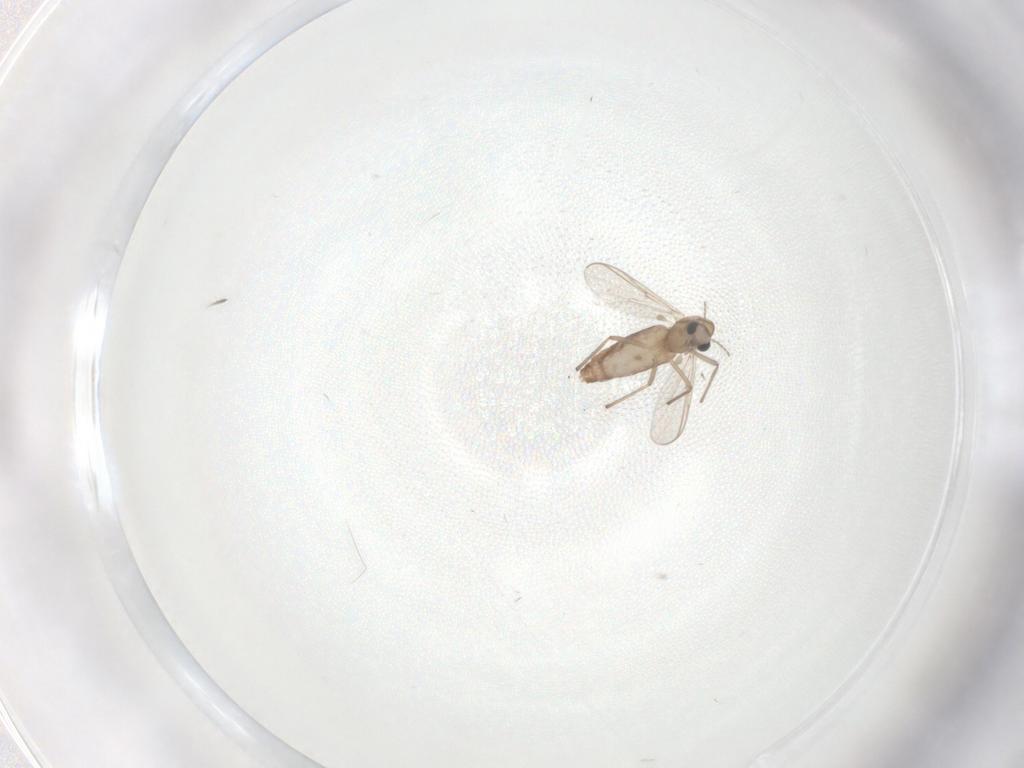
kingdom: Animalia
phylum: Arthropoda
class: Insecta
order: Diptera
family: Chironomidae
